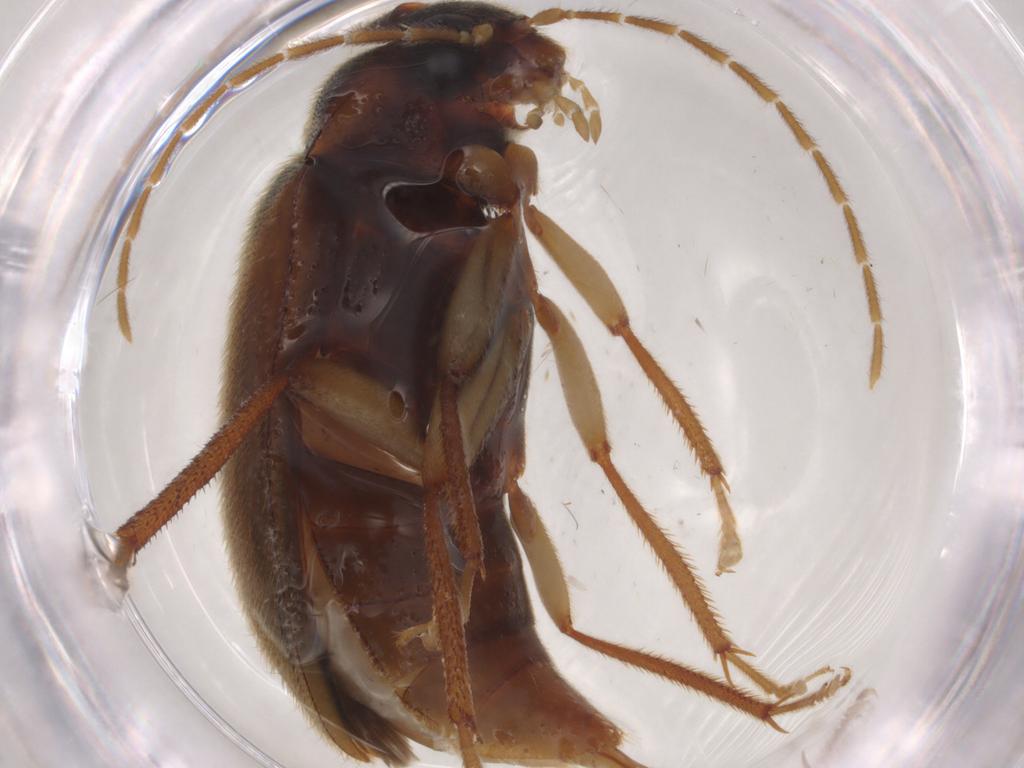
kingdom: Animalia
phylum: Arthropoda
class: Insecta
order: Coleoptera
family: Ptilodactylidae
